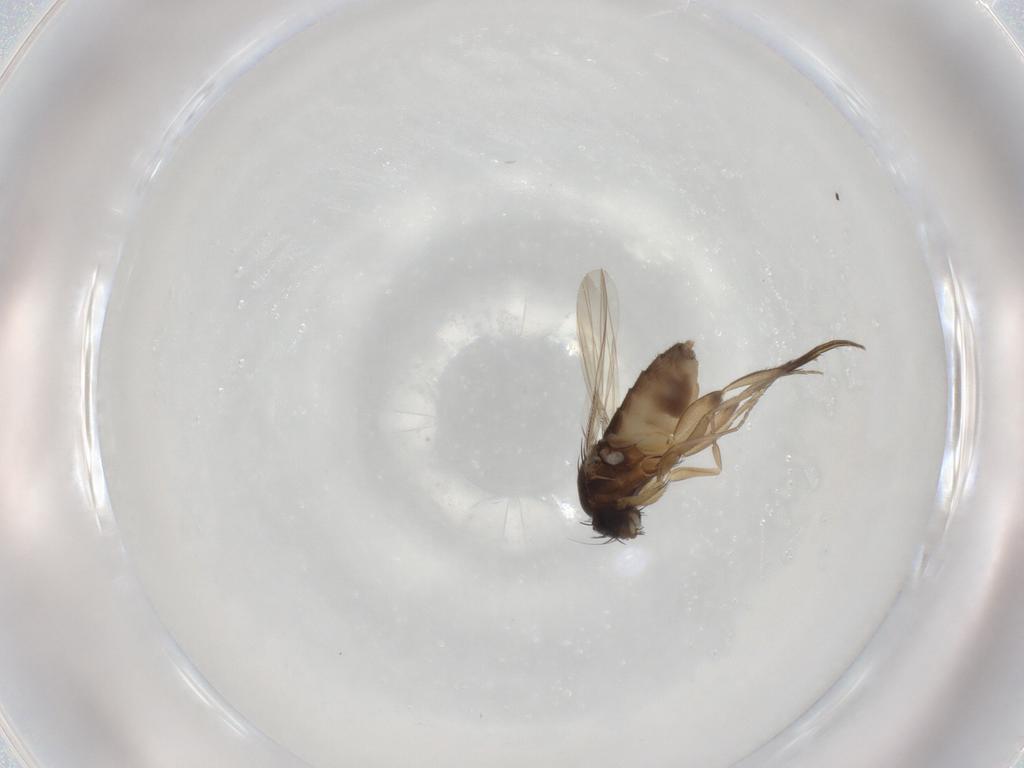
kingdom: Animalia
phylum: Arthropoda
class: Insecta
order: Diptera
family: Phoridae
